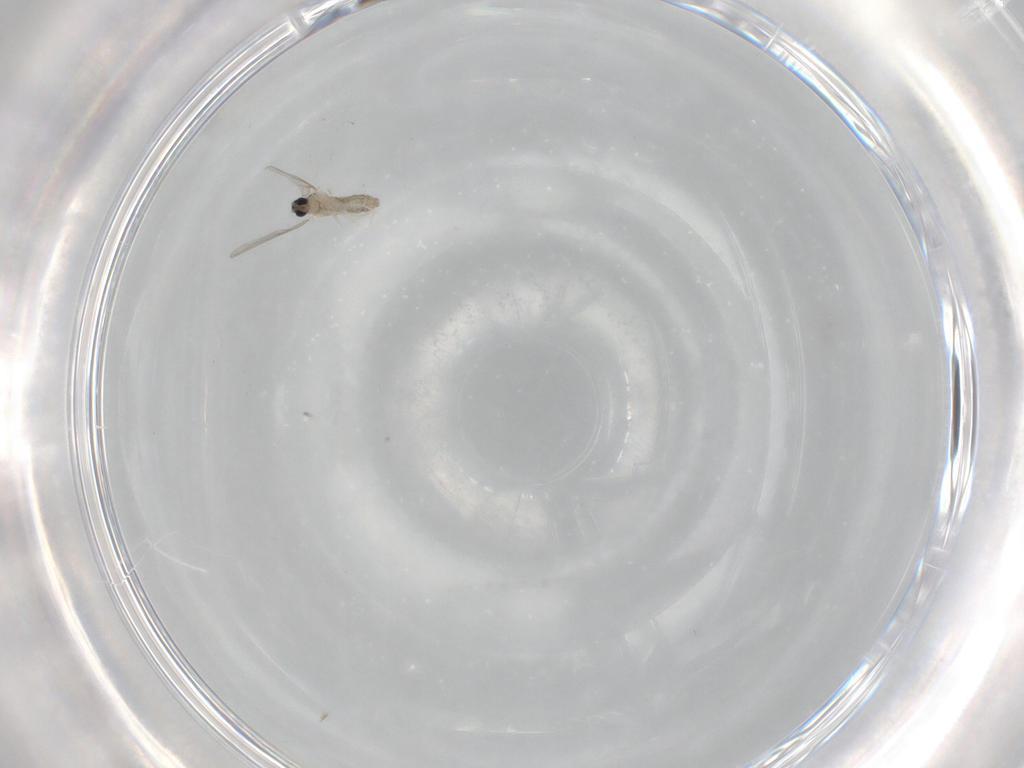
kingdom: Animalia
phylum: Arthropoda
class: Insecta
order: Diptera
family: Cecidomyiidae
